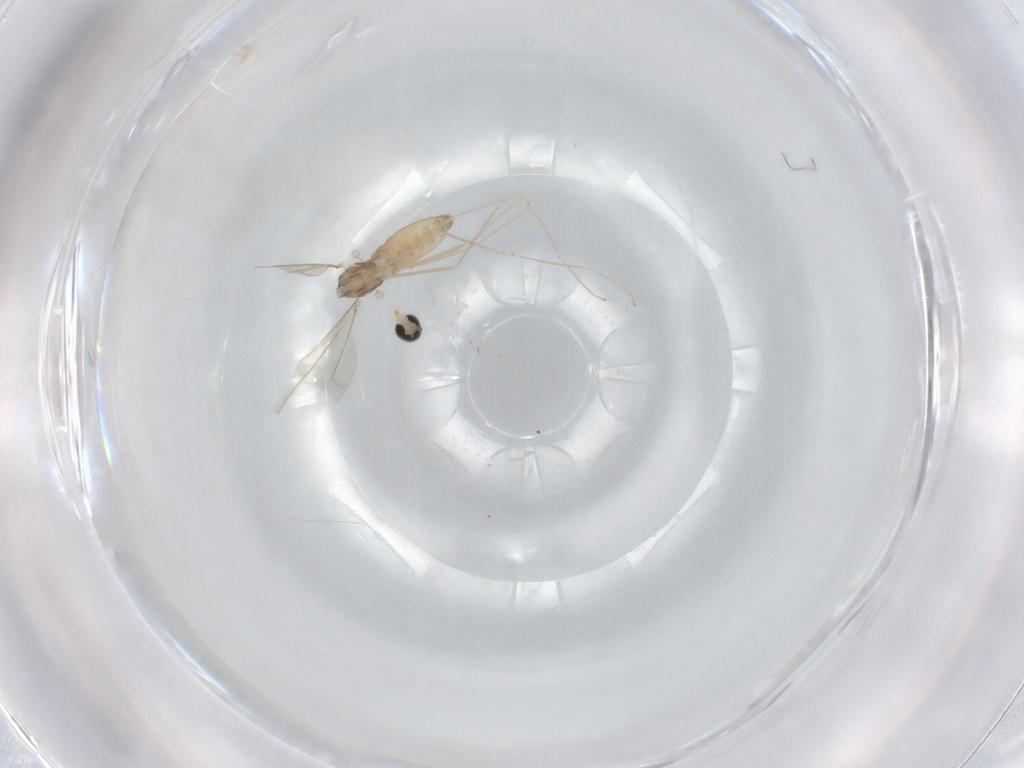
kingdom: Animalia
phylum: Arthropoda
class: Insecta
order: Diptera
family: Cecidomyiidae
